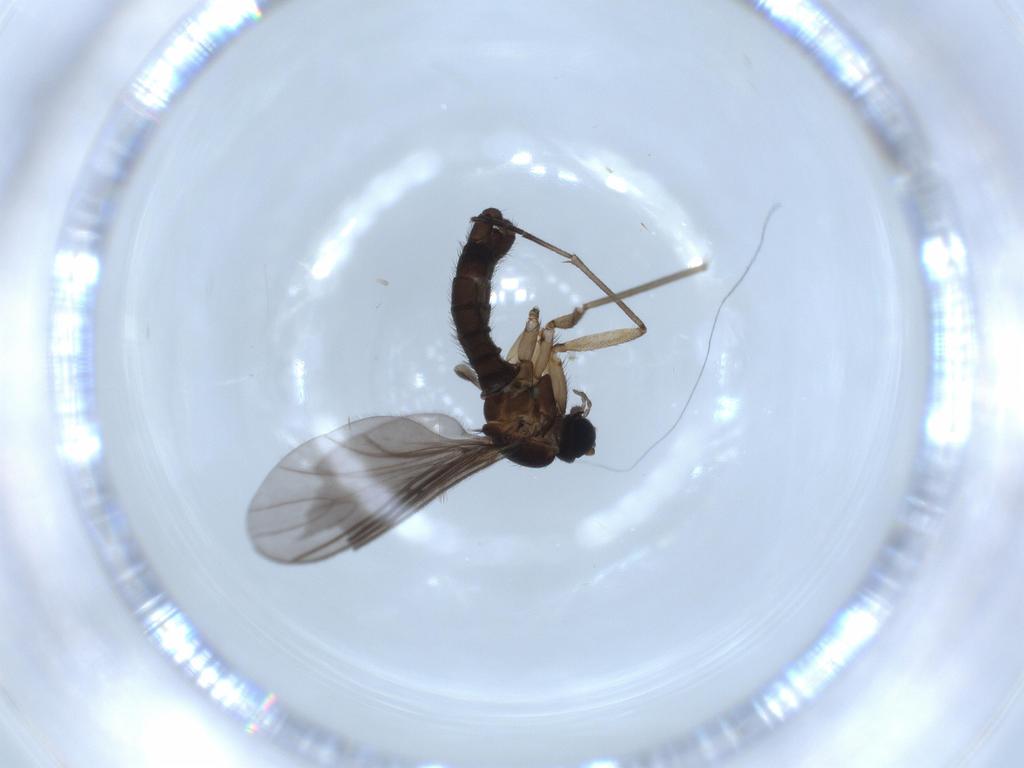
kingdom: Animalia
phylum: Arthropoda
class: Insecta
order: Diptera
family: Sciaridae
